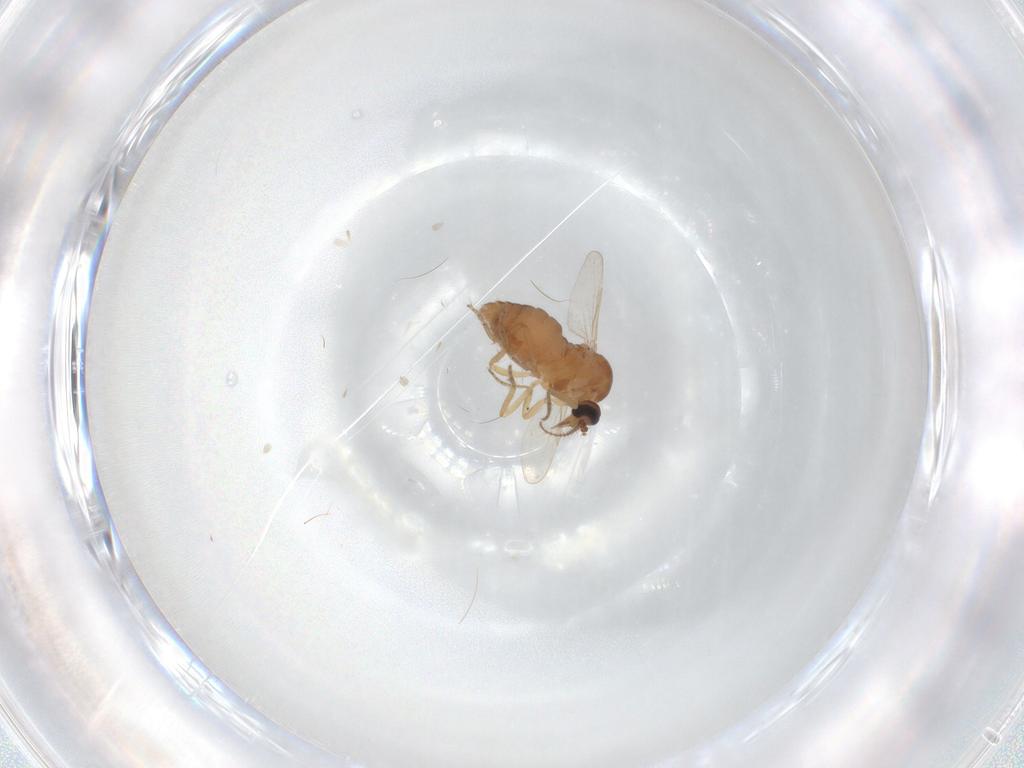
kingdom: Animalia
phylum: Arthropoda
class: Insecta
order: Diptera
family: Ceratopogonidae
